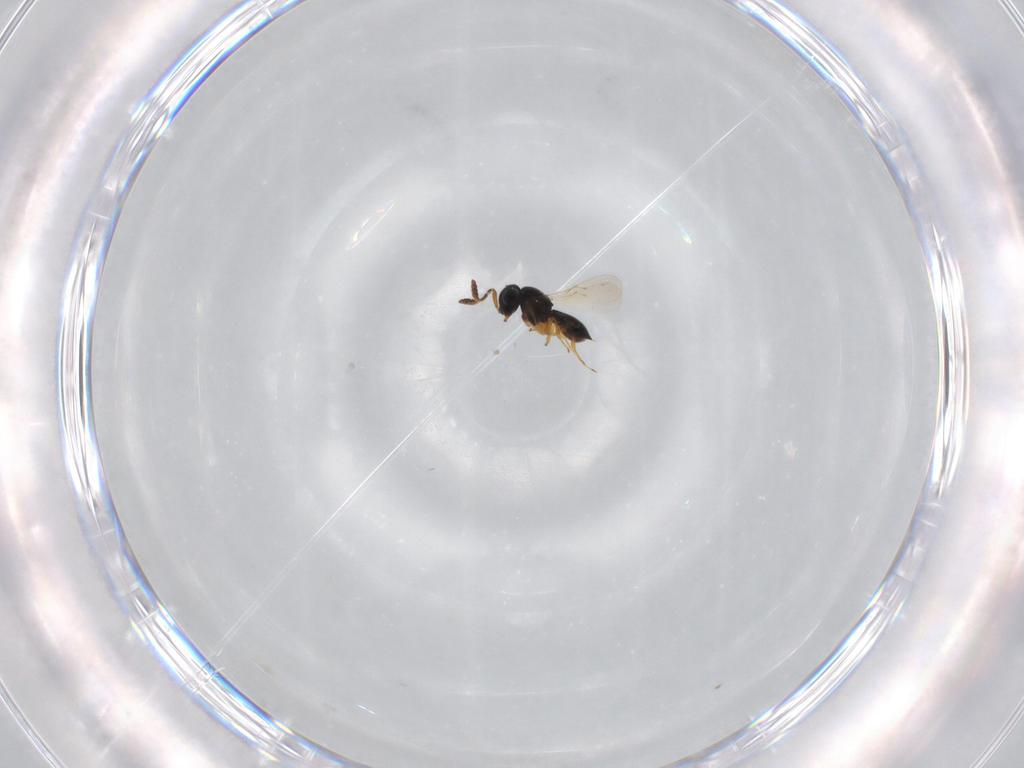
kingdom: Animalia
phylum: Arthropoda
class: Insecta
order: Hymenoptera
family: Scelionidae
